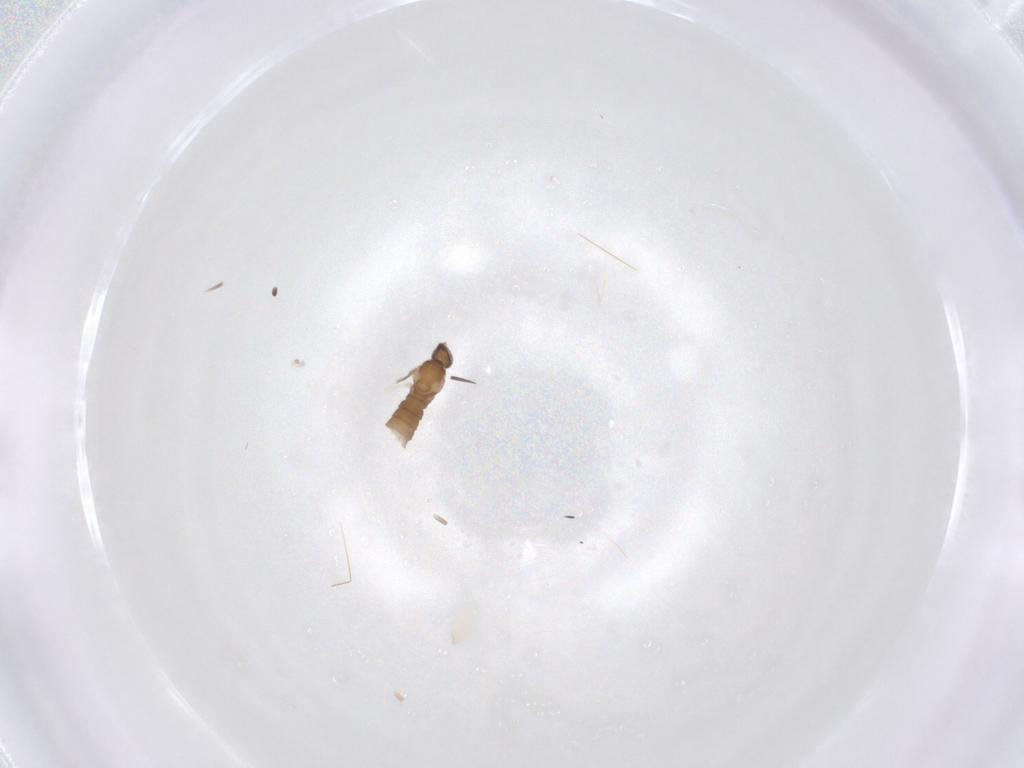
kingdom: Animalia
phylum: Arthropoda
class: Insecta
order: Diptera
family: Cecidomyiidae
